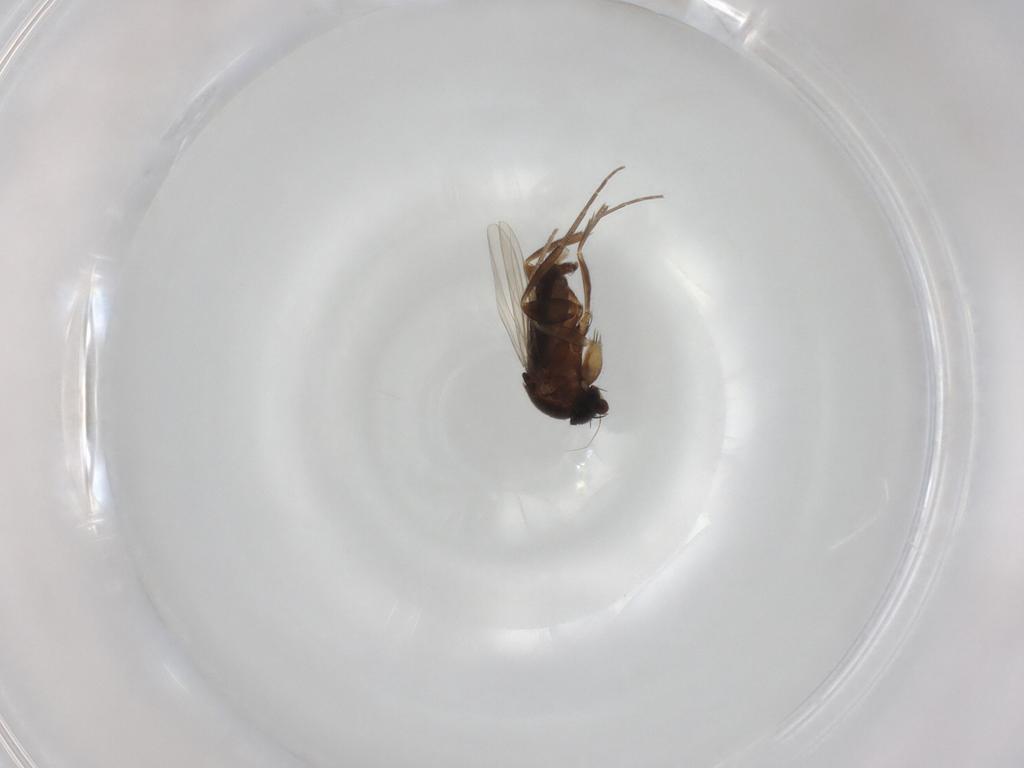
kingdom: Animalia
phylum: Arthropoda
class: Insecta
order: Diptera
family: Phoridae
